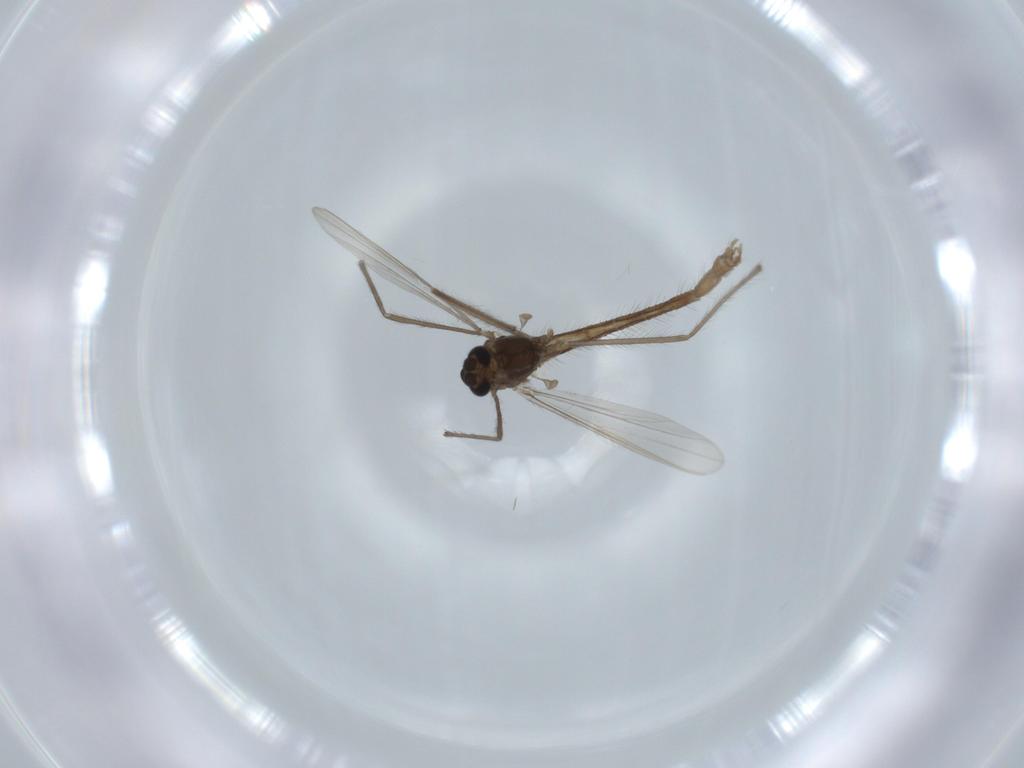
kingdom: Animalia
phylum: Arthropoda
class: Insecta
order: Diptera
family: Chironomidae
